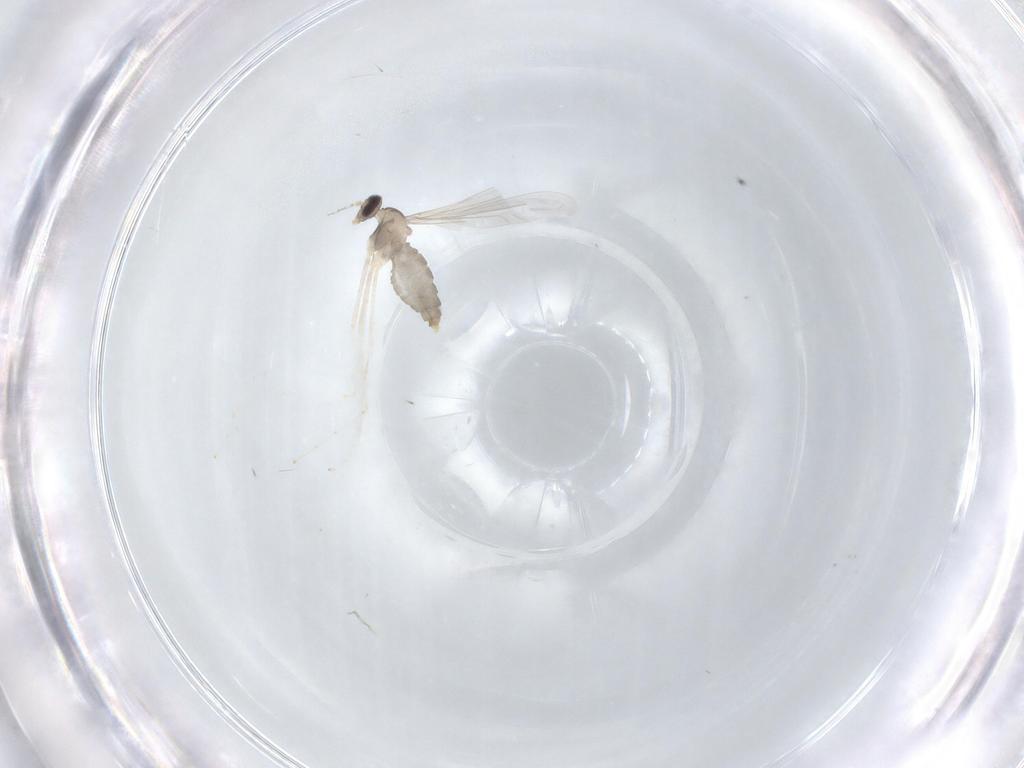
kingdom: Animalia
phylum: Arthropoda
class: Insecta
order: Diptera
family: Cecidomyiidae
